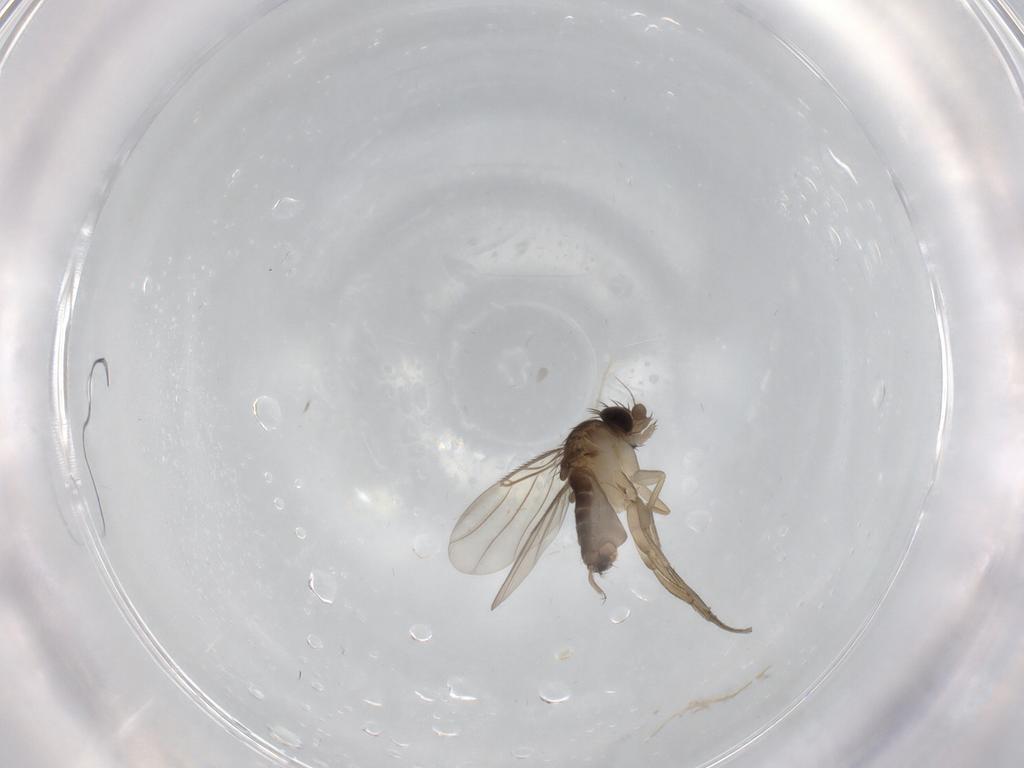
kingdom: Animalia
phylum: Arthropoda
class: Insecta
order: Diptera
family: Phoridae
